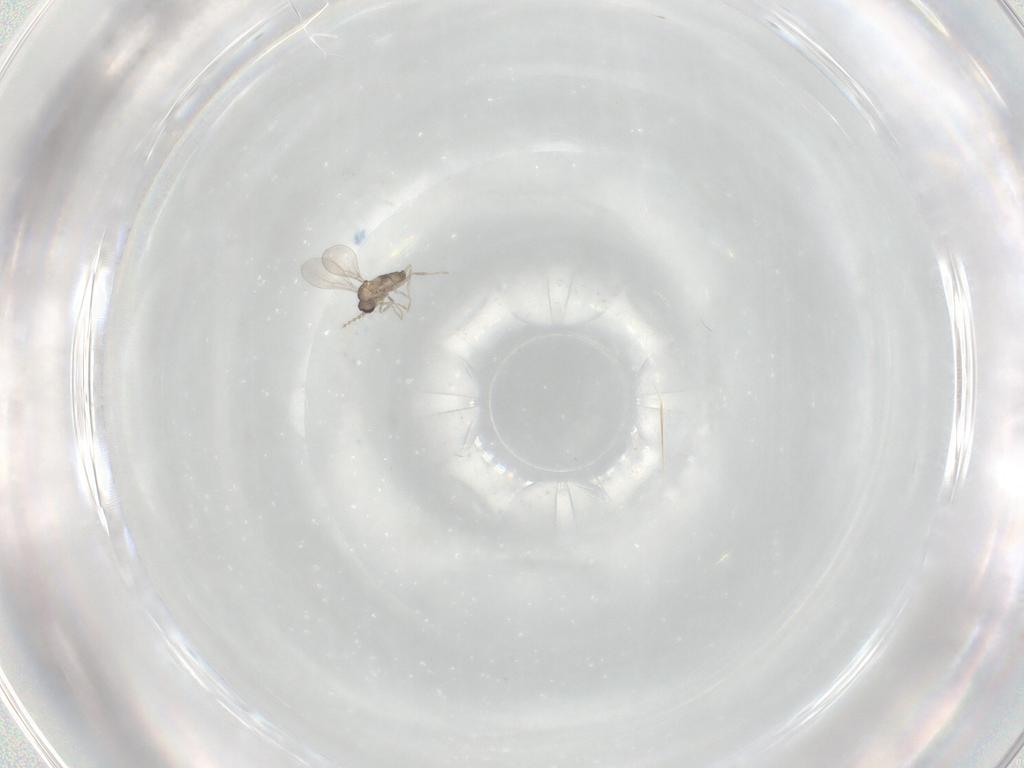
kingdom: Animalia
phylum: Arthropoda
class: Insecta
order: Diptera
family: Cecidomyiidae
